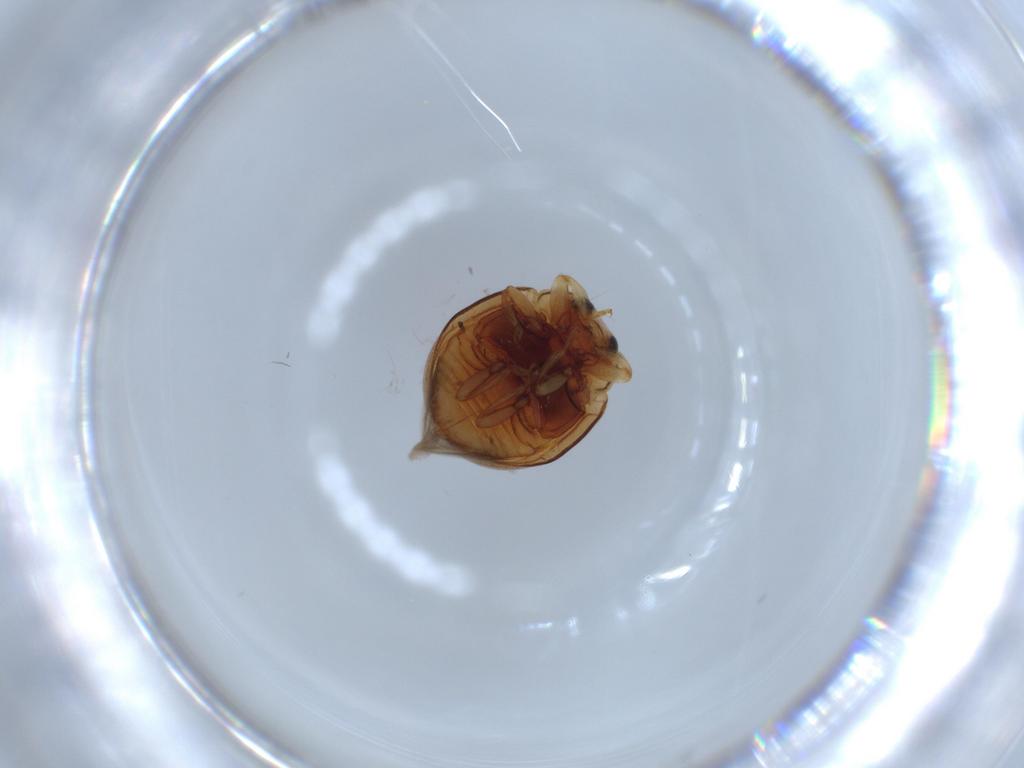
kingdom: Animalia
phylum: Arthropoda
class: Insecta
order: Coleoptera
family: Coccinellidae
